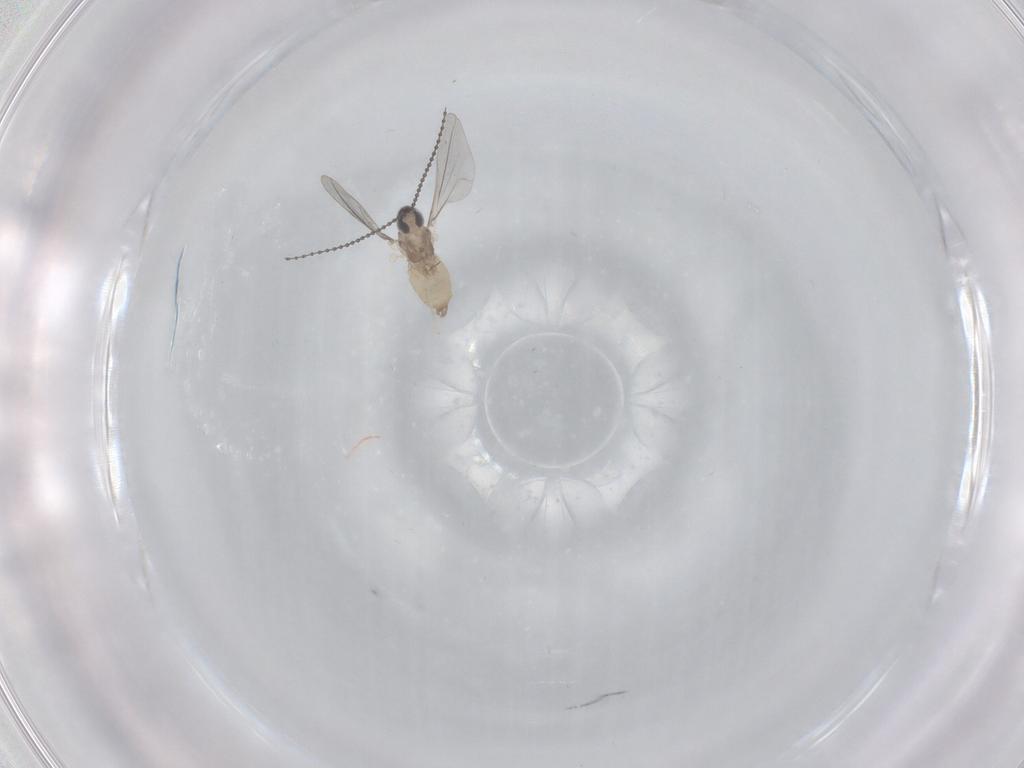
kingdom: Animalia
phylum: Arthropoda
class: Insecta
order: Diptera
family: Cecidomyiidae
